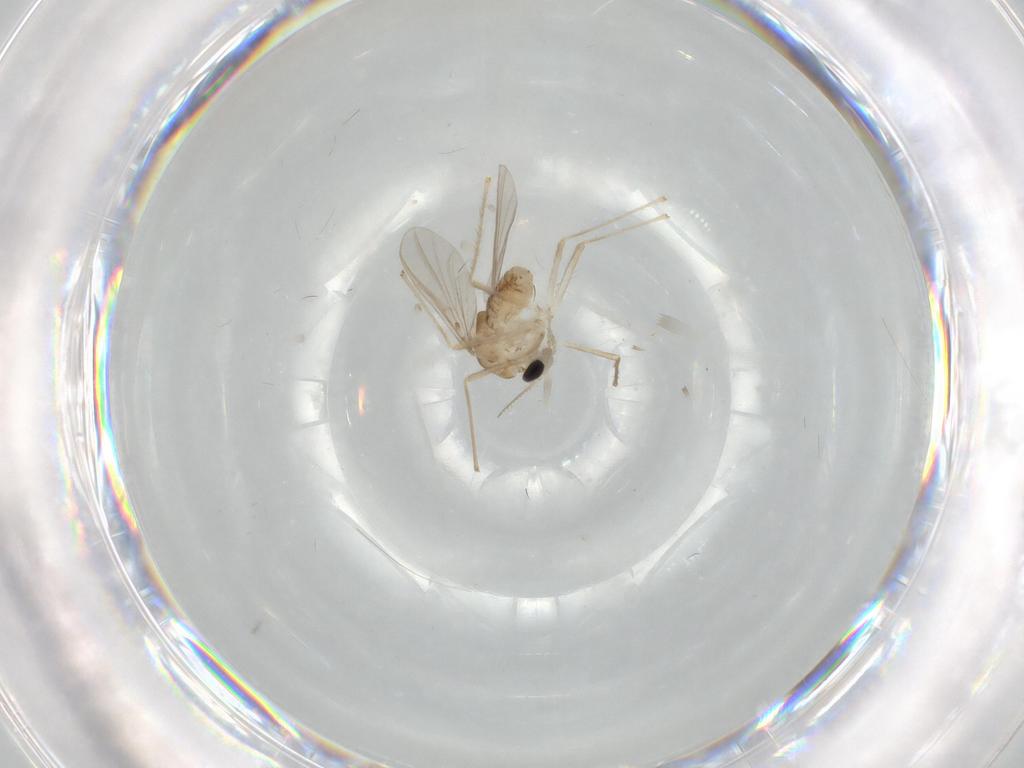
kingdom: Animalia
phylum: Arthropoda
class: Insecta
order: Diptera
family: Chironomidae
